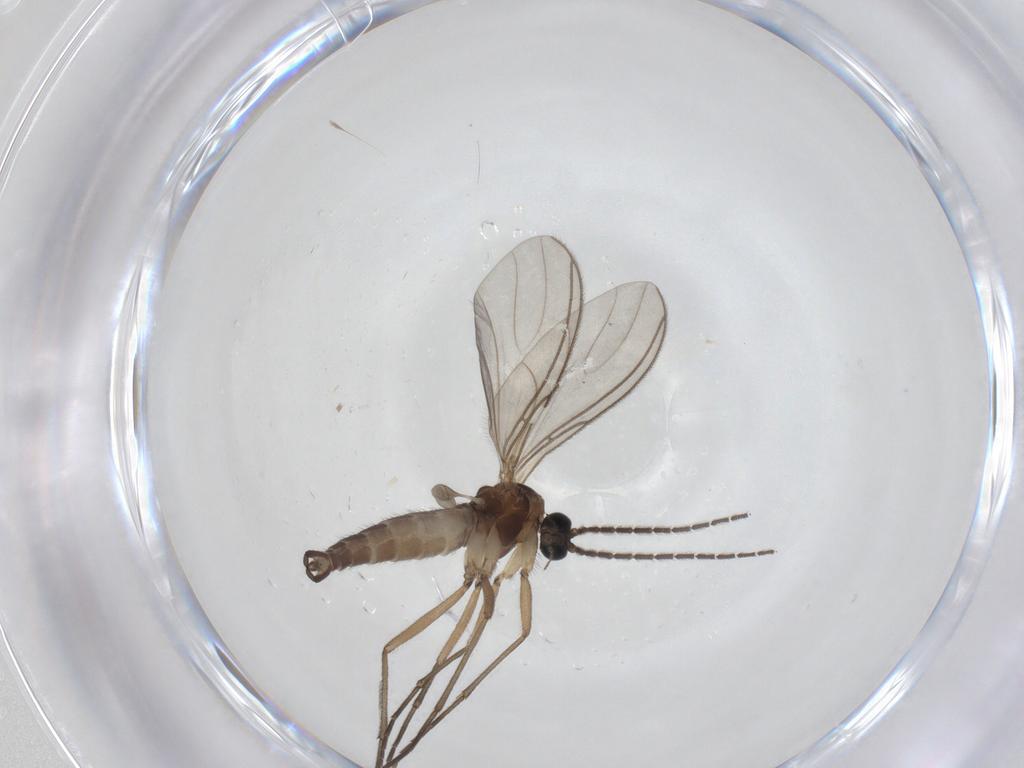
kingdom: Animalia
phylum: Arthropoda
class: Insecta
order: Diptera
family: Sciaridae
